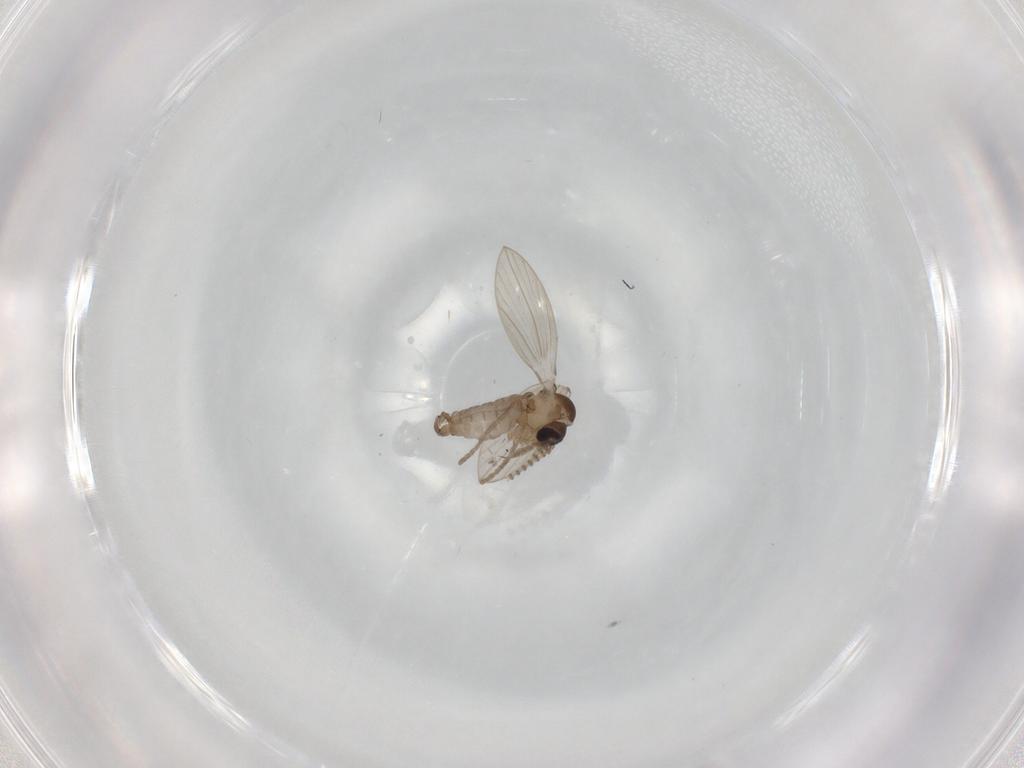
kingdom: Animalia
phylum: Arthropoda
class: Insecta
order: Diptera
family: Psychodidae
